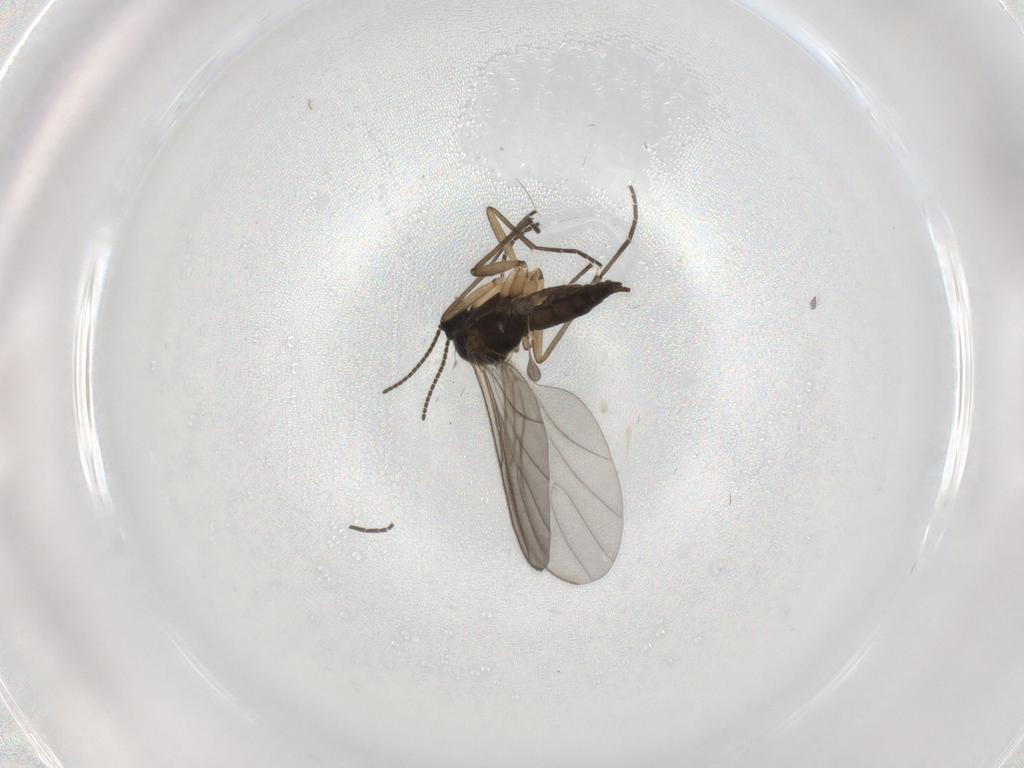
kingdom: Animalia
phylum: Arthropoda
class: Insecta
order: Diptera
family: Sciaridae
